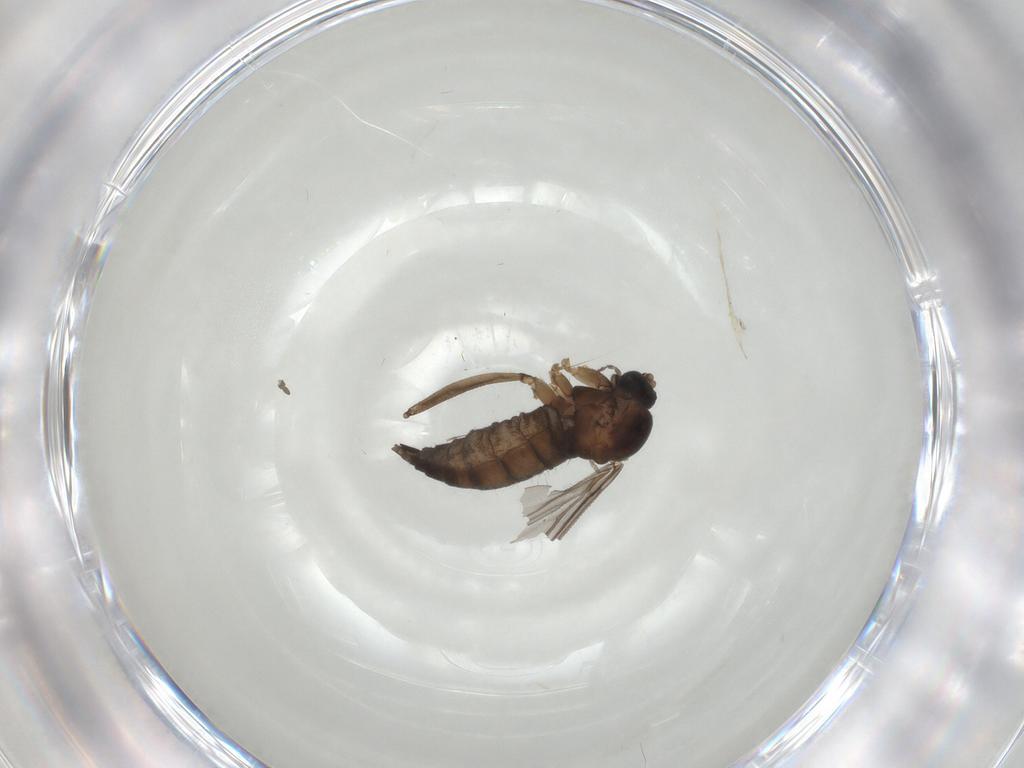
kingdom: Animalia
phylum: Arthropoda
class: Insecta
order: Diptera
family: Sciaridae
